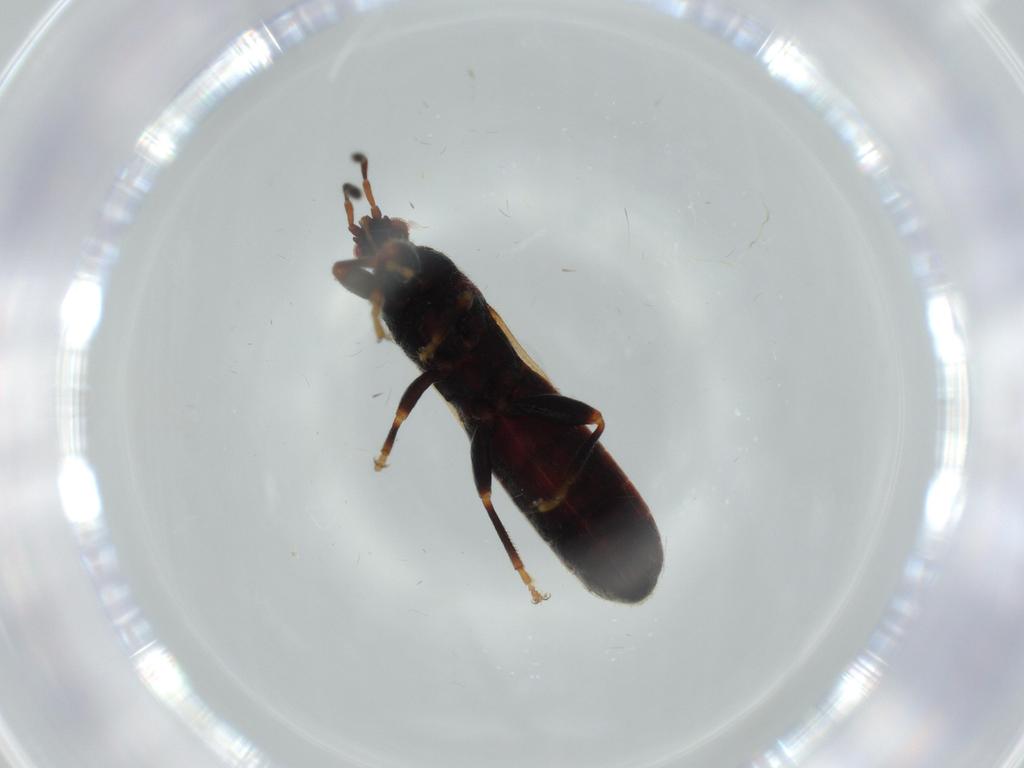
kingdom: Animalia
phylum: Arthropoda
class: Insecta
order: Hemiptera
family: Blissidae
